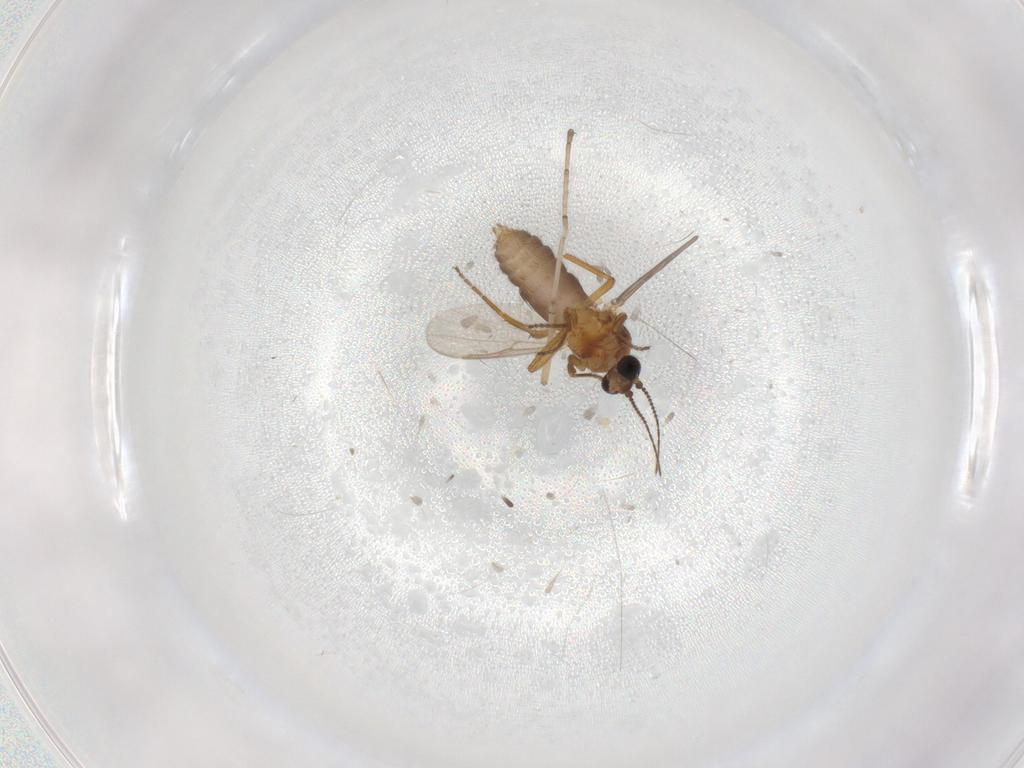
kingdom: Animalia
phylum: Arthropoda
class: Insecta
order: Diptera
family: Ceratopogonidae
